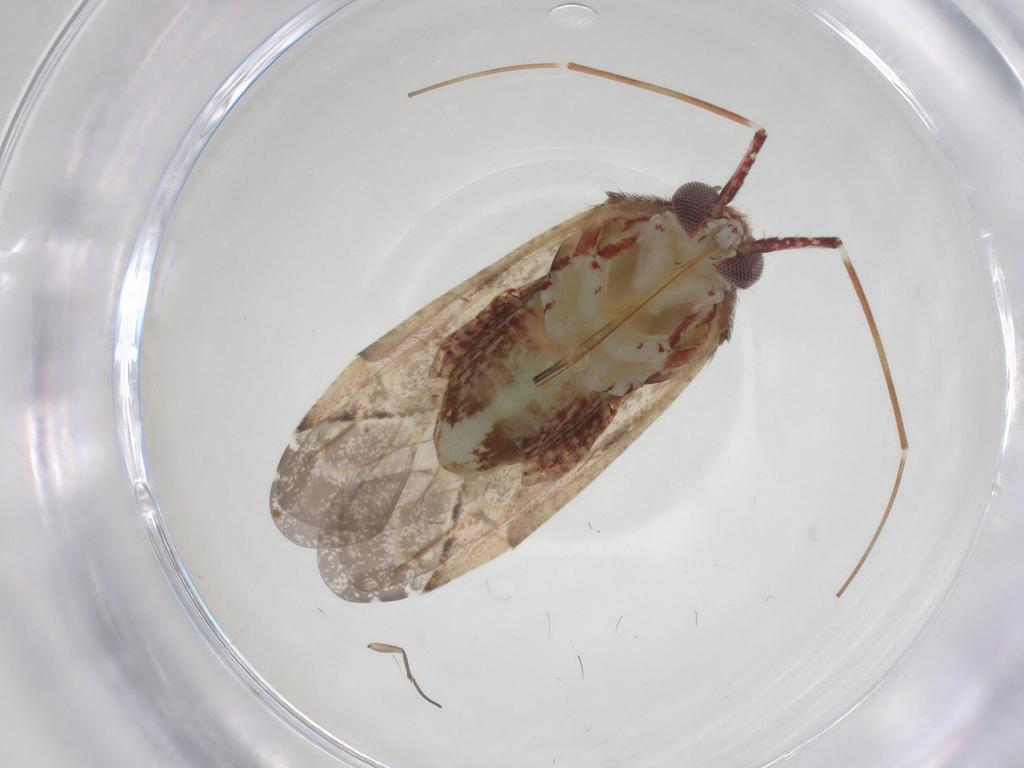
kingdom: Animalia
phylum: Arthropoda
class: Insecta
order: Hemiptera
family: Miridae
